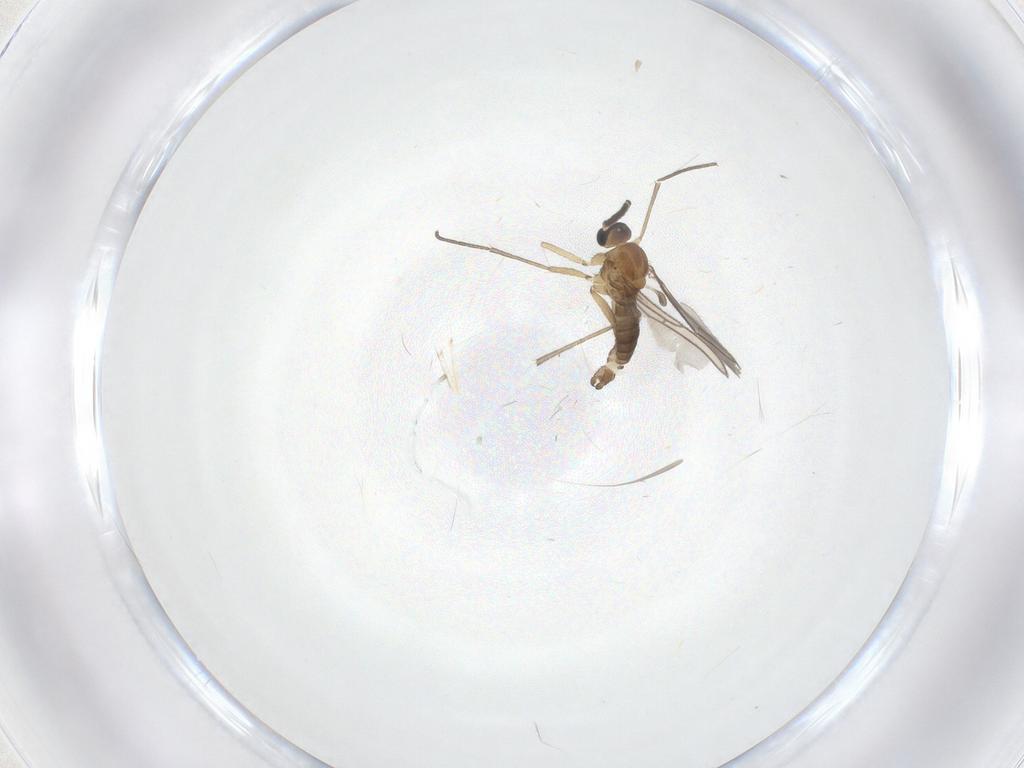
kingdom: Animalia
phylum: Arthropoda
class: Insecta
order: Diptera
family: Sciaridae
